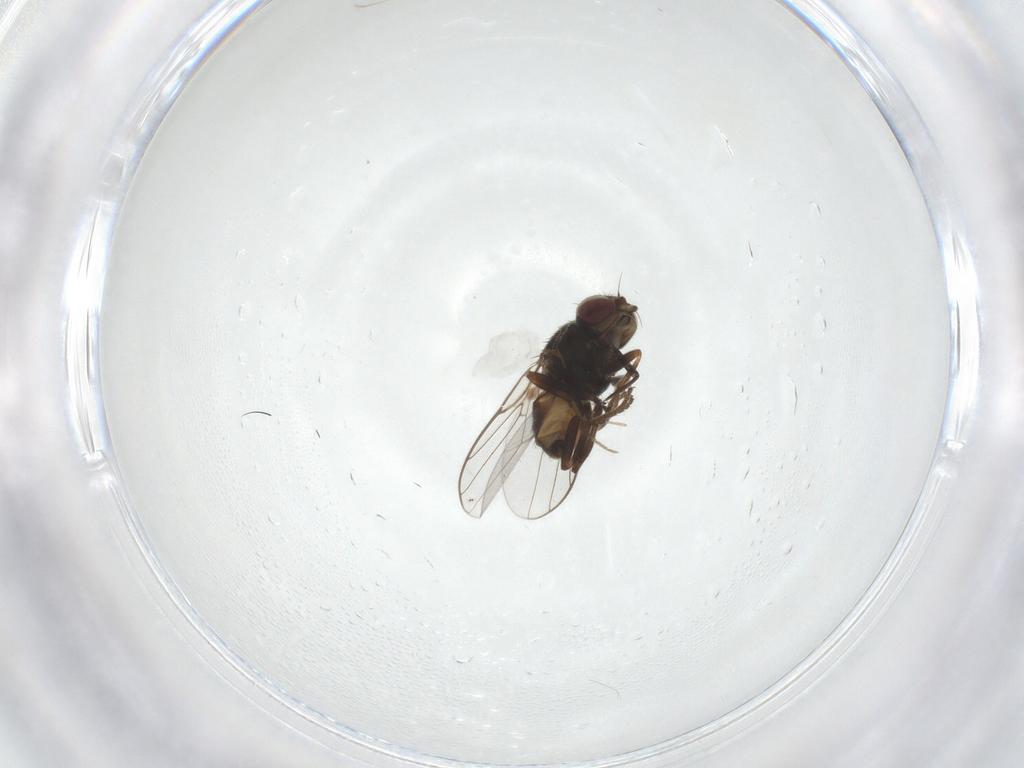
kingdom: Animalia
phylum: Arthropoda
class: Insecta
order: Diptera
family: Chloropidae
